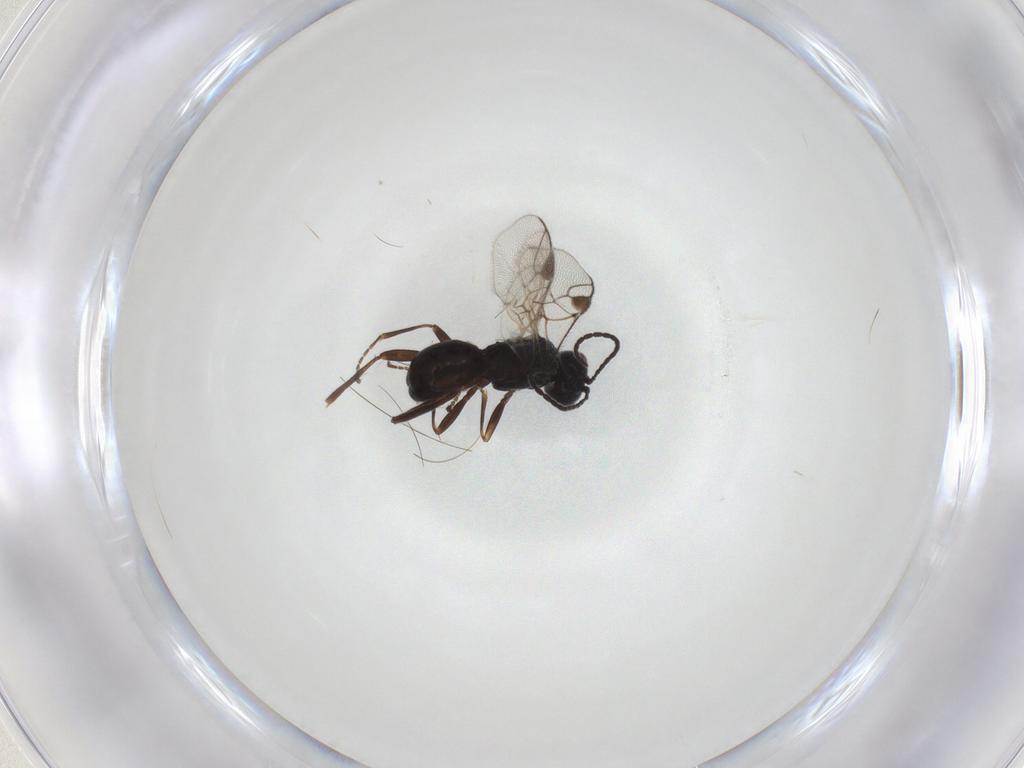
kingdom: Animalia
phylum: Arthropoda
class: Insecta
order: Hymenoptera
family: Braconidae
